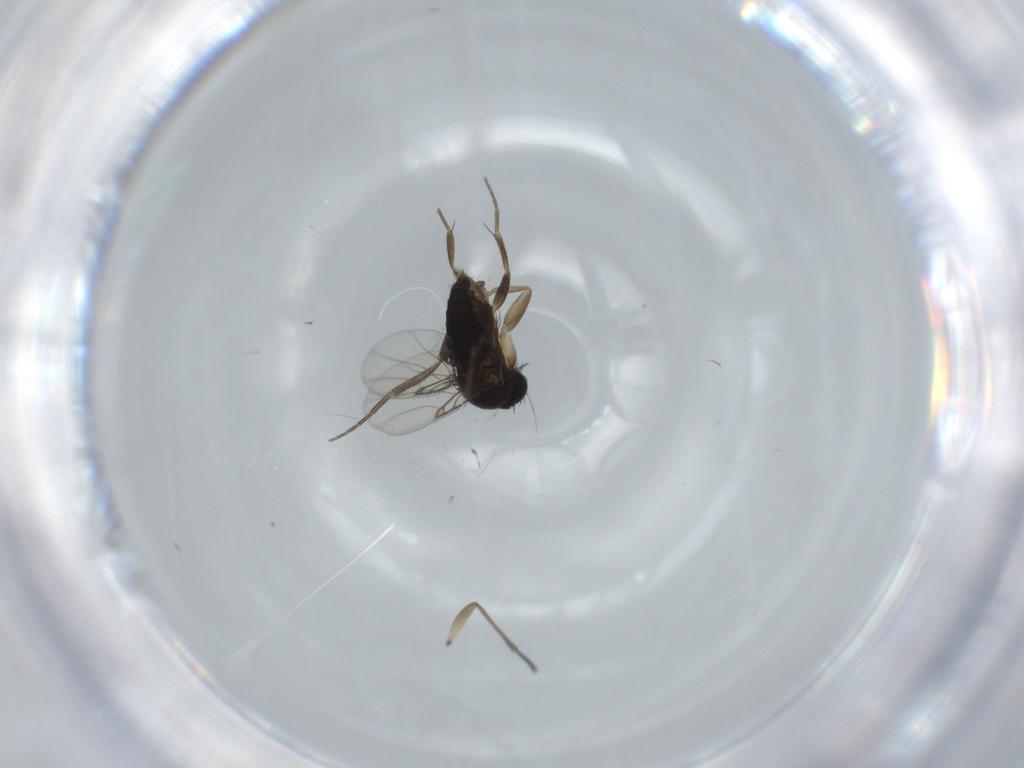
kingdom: Animalia
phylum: Arthropoda
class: Insecta
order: Diptera
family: Phoridae
